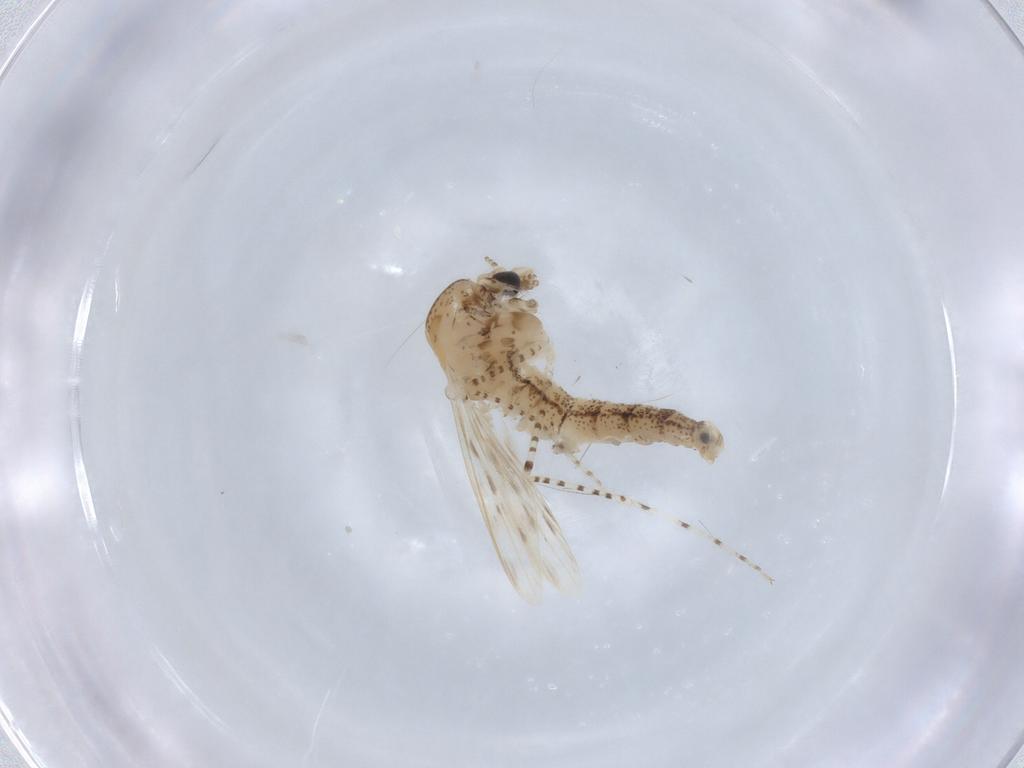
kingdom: Animalia
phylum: Arthropoda
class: Insecta
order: Diptera
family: Chaoboridae
